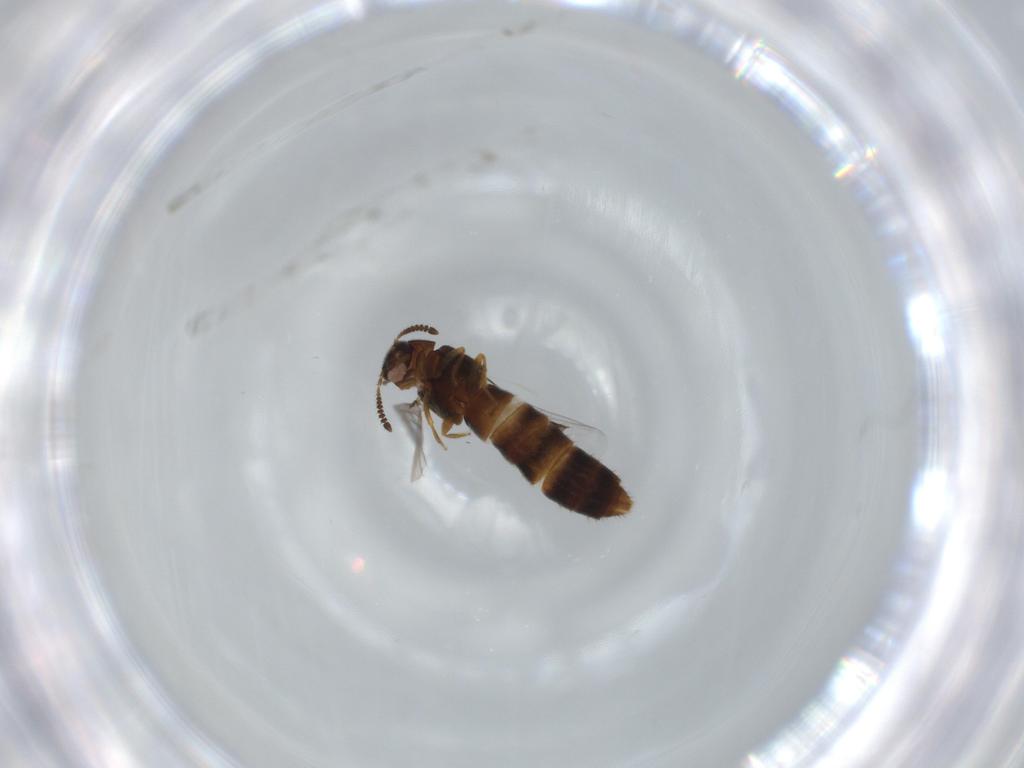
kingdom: Animalia
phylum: Arthropoda
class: Insecta
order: Coleoptera
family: Staphylinidae
